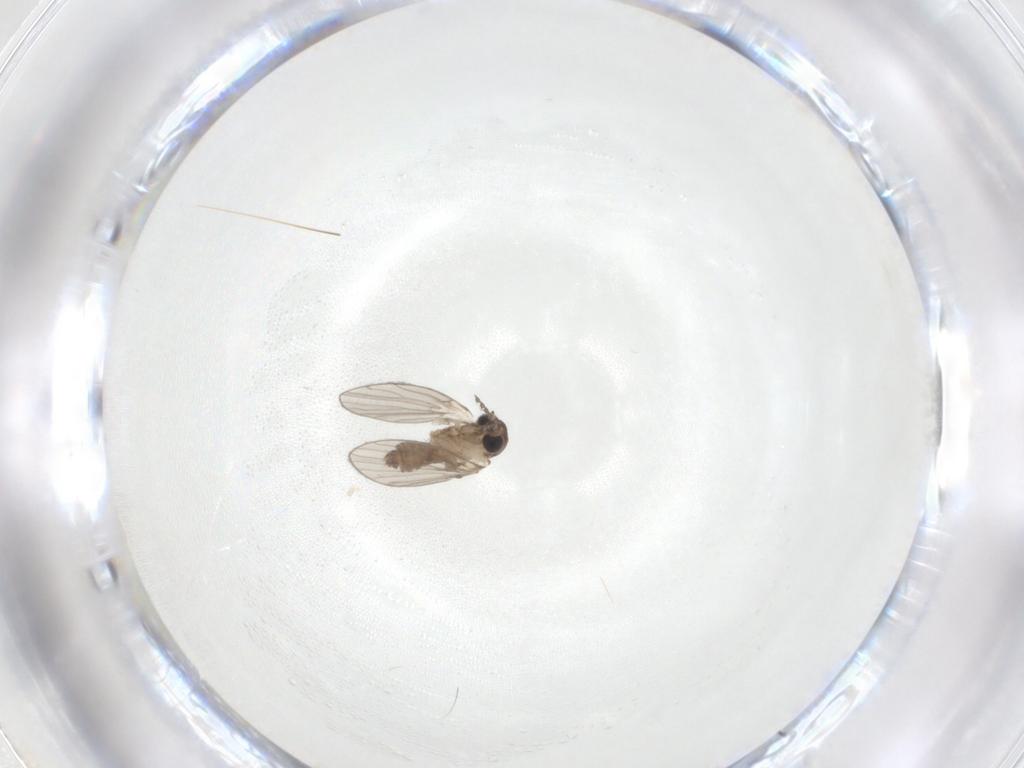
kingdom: Animalia
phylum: Arthropoda
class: Insecta
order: Diptera
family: Psychodidae
